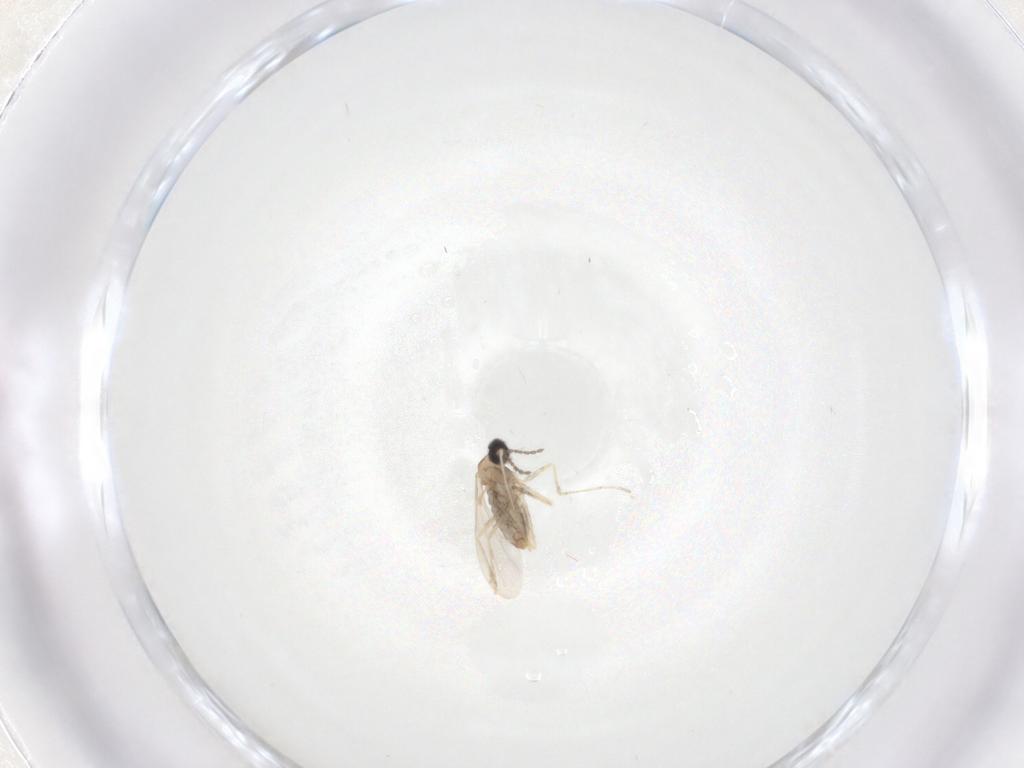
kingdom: Animalia
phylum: Arthropoda
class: Insecta
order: Diptera
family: Cecidomyiidae
